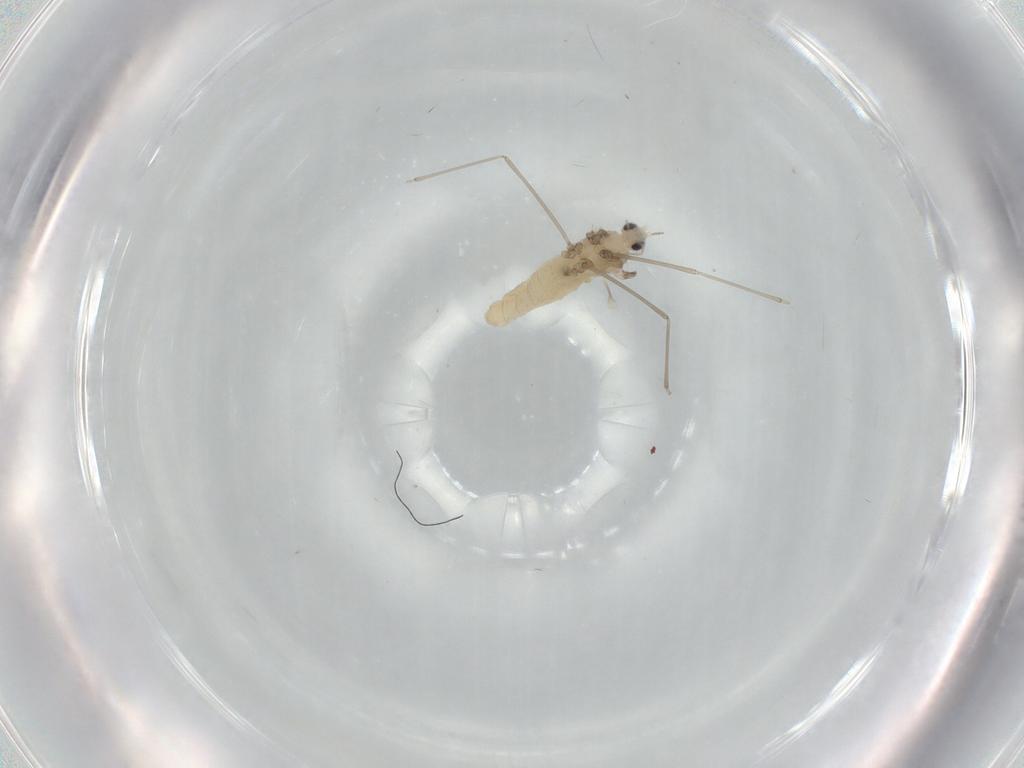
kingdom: Animalia
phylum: Arthropoda
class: Insecta
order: Diptera
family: Cecidomyiidae
